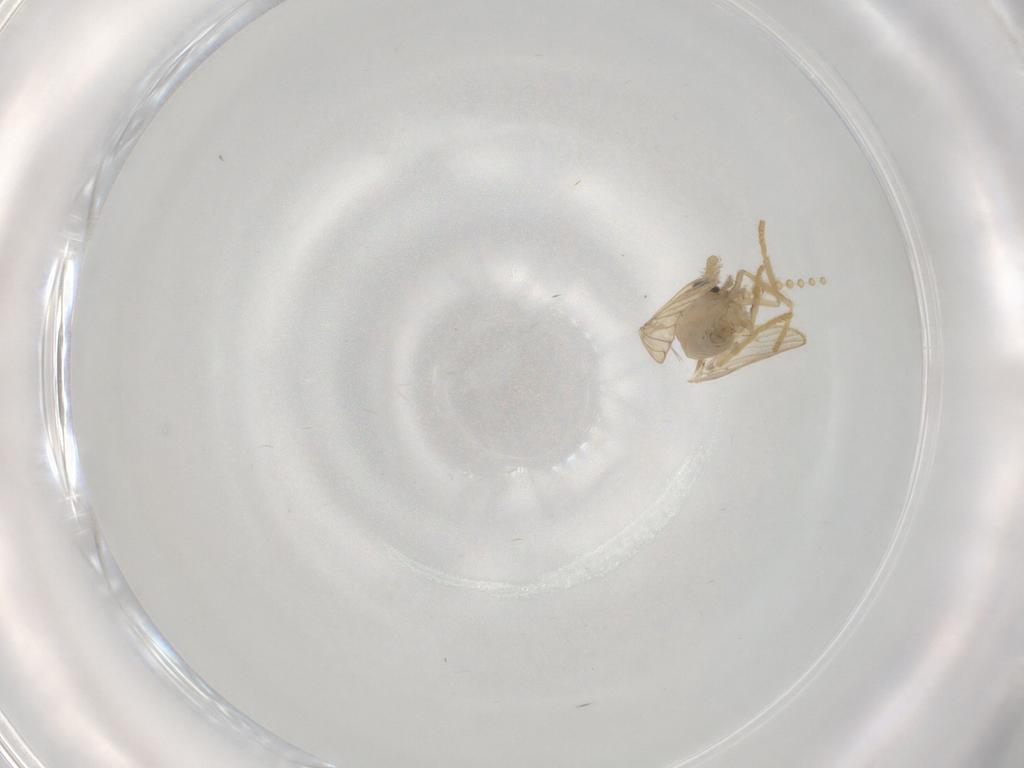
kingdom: Animalia
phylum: Arthropoda
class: Insecta
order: Diptera
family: Psychodidae
